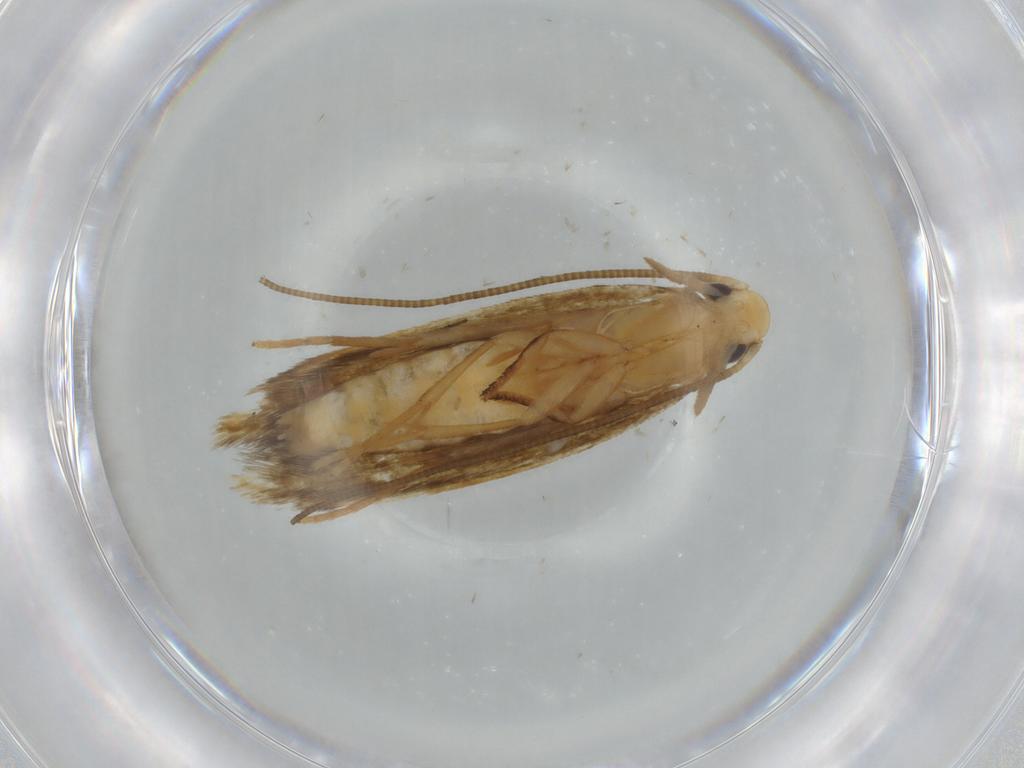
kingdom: Animalia
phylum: Arthropoda
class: Insecta
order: Lepidoptera
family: Tineidae
